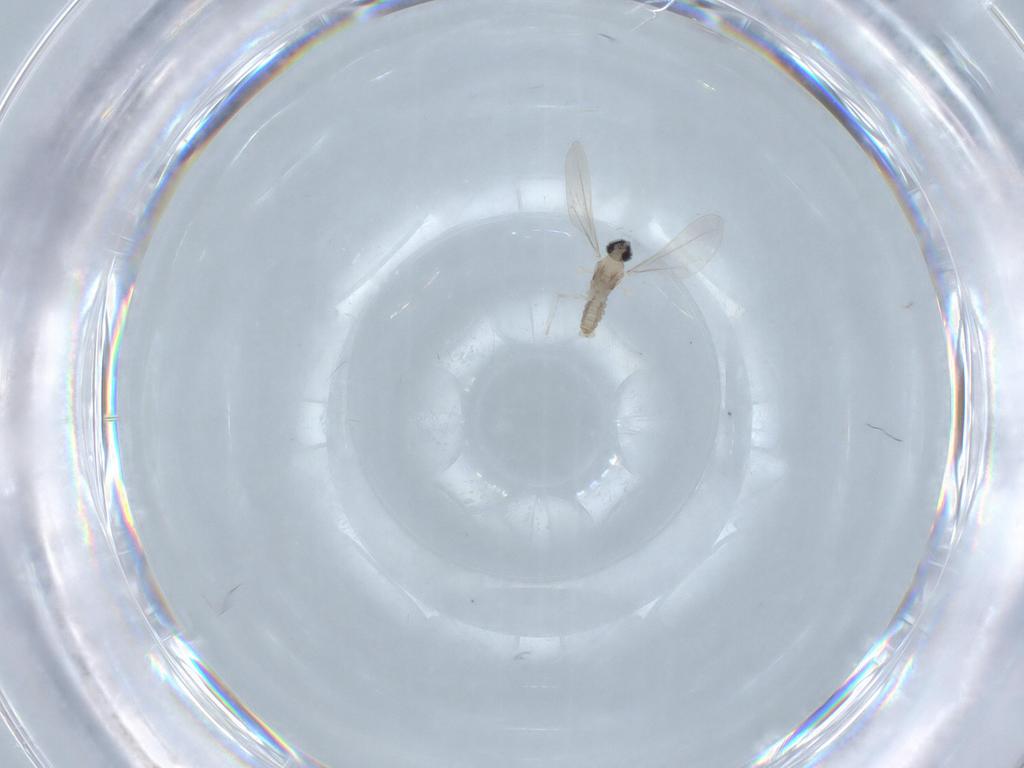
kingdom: Animalia
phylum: Arthropoda
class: Insecta
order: Diptera
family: Cecidomyiidae
